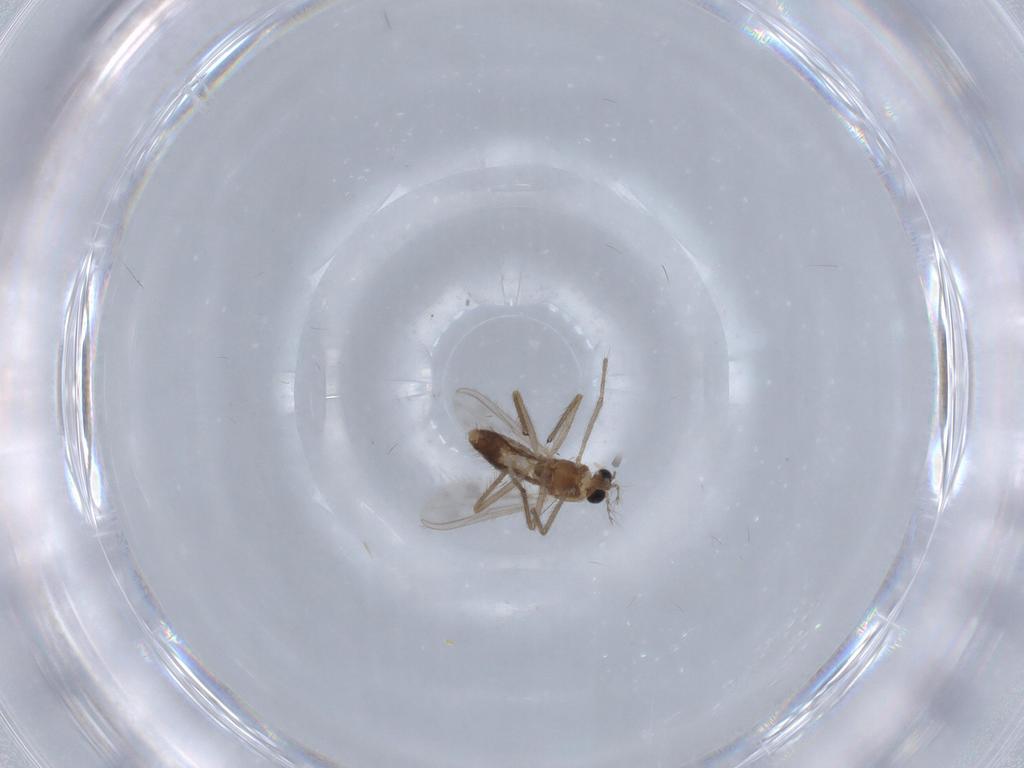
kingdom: Animalia
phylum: Arthropoda
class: Insecta
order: Diptera
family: Chironomidae
